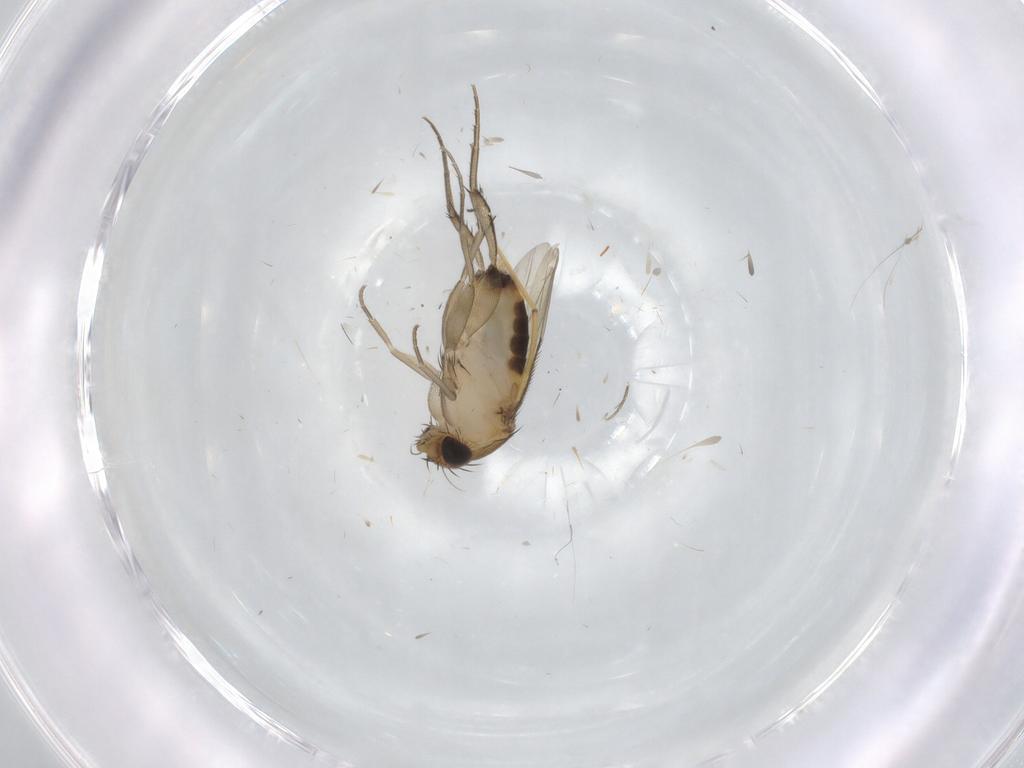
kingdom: Animalia
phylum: Arthropoda
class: Insecta
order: Diptera
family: Phoridae
